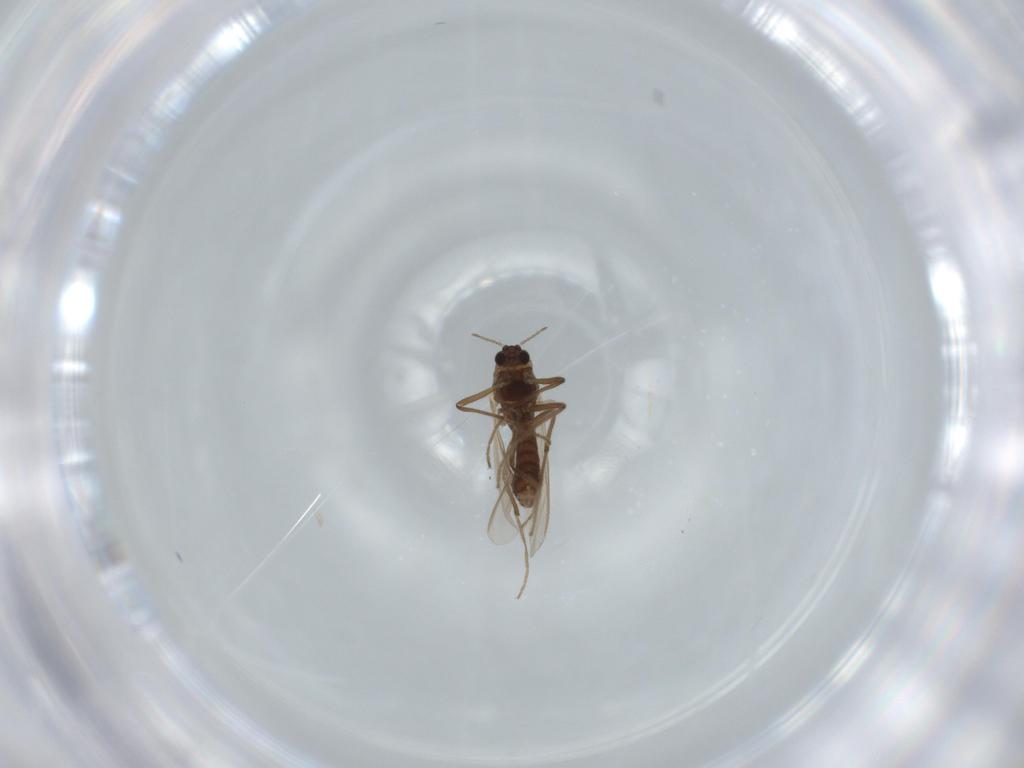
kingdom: Animalia
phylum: Arthropoda
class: Insecta
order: Diptera
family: Chironomidae
